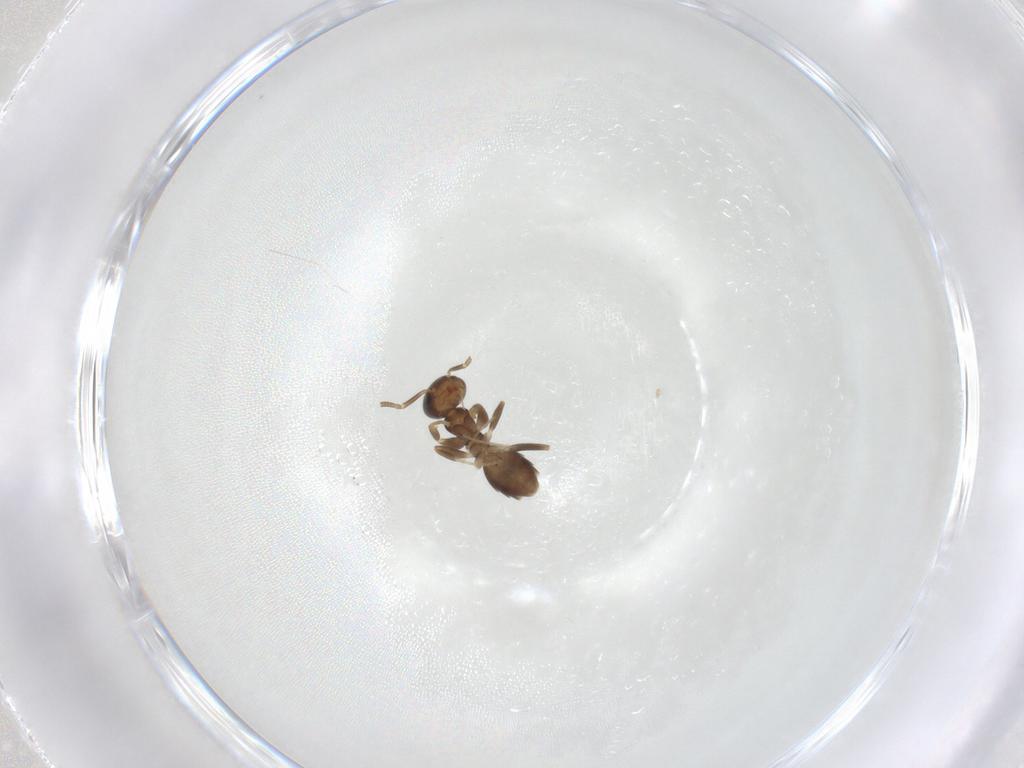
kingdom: Animalia
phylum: Arthropoda
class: Insecta
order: Hymenoptera
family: Formicidae
